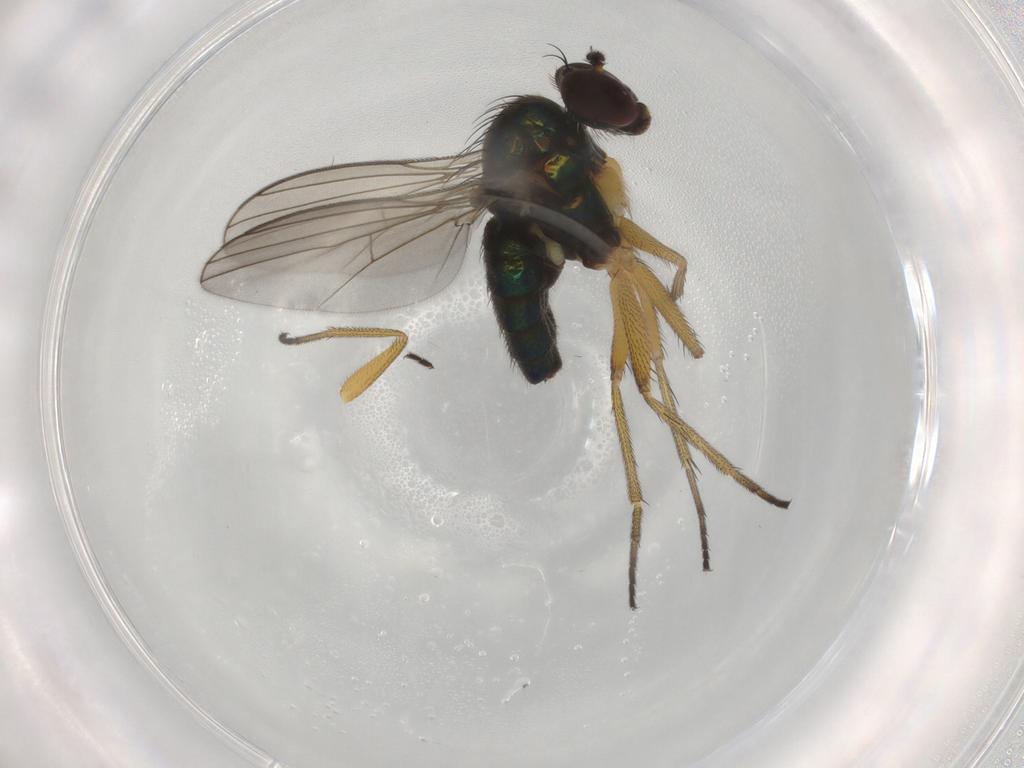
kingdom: Animalia
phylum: Arthropoda
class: Insecta
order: Diptera
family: Dolichopodidae
